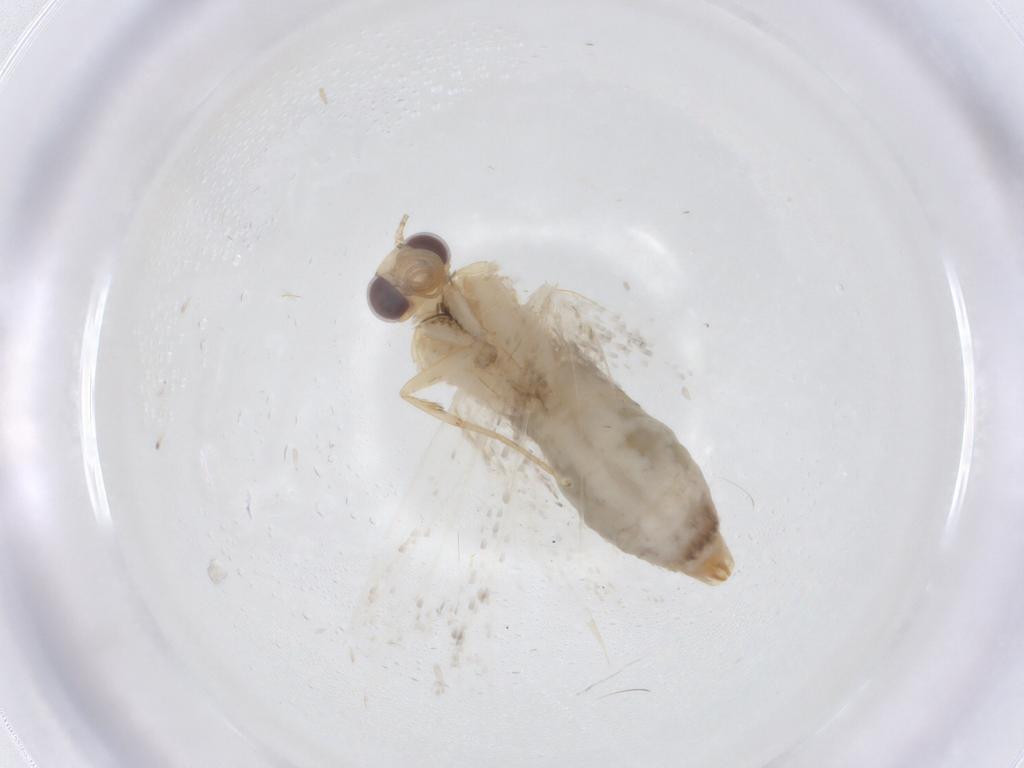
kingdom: Animalia
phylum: Arthropoda
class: Insecta
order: Lepidoptera
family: Erebidae
